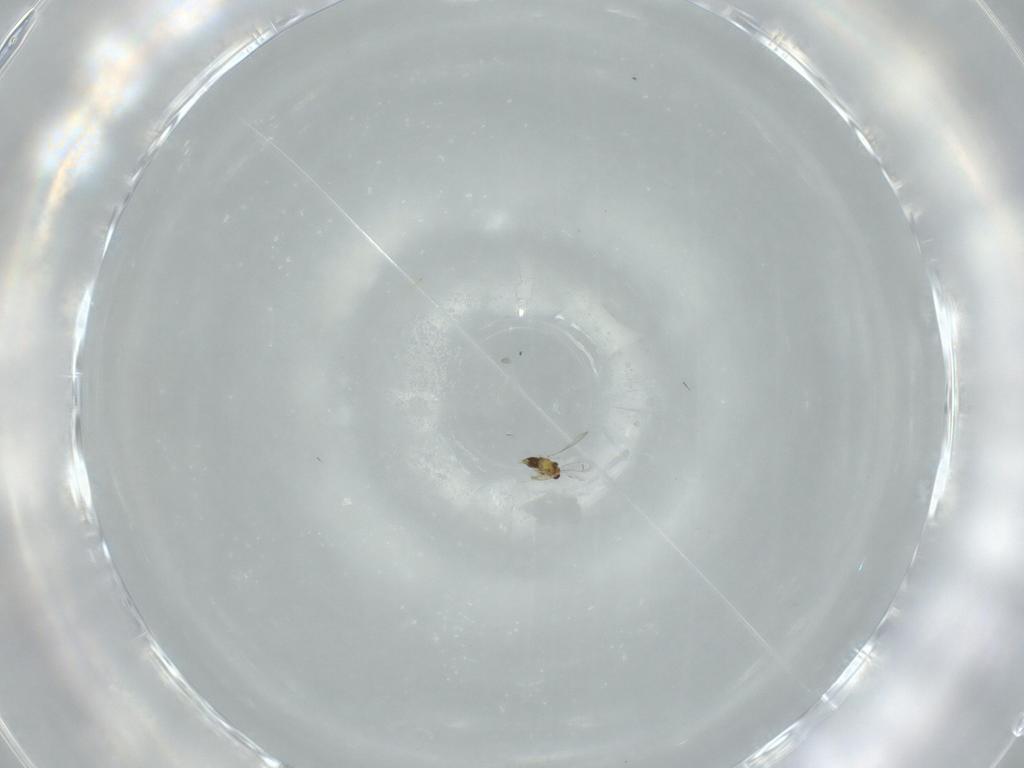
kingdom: Animalia
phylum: Arthropoda
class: Insecta
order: Hymenoptera
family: Aphelinidae
